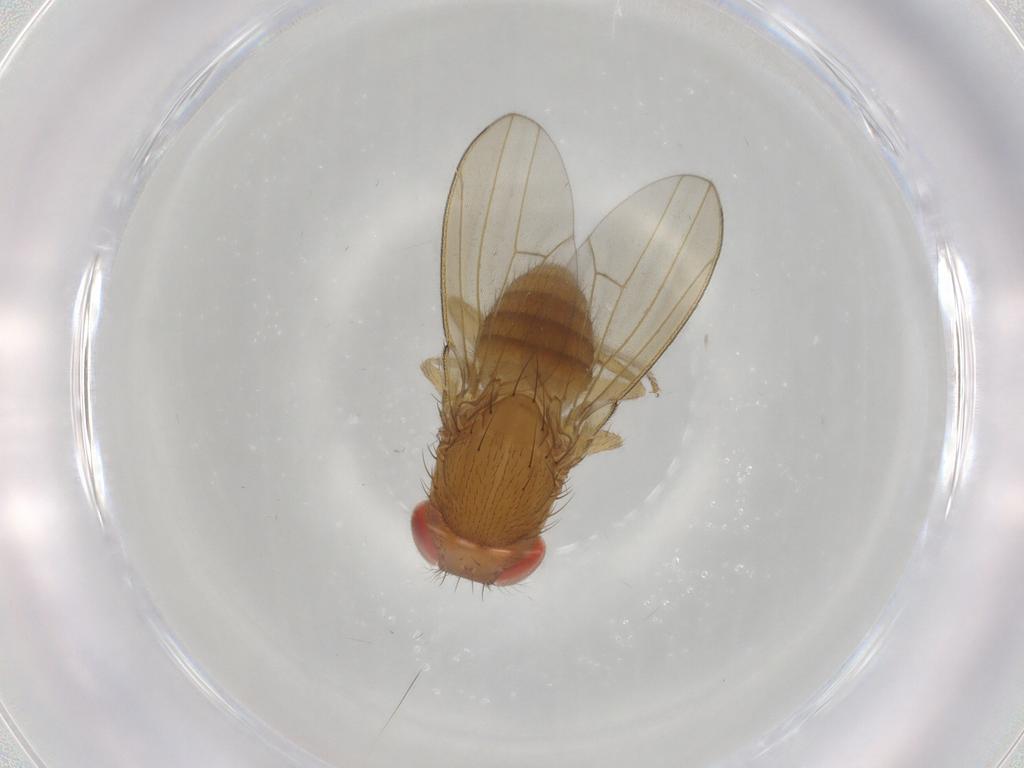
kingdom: Animalia
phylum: Arthropoda
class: Insecta
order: Diptera
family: Drosophilidae
